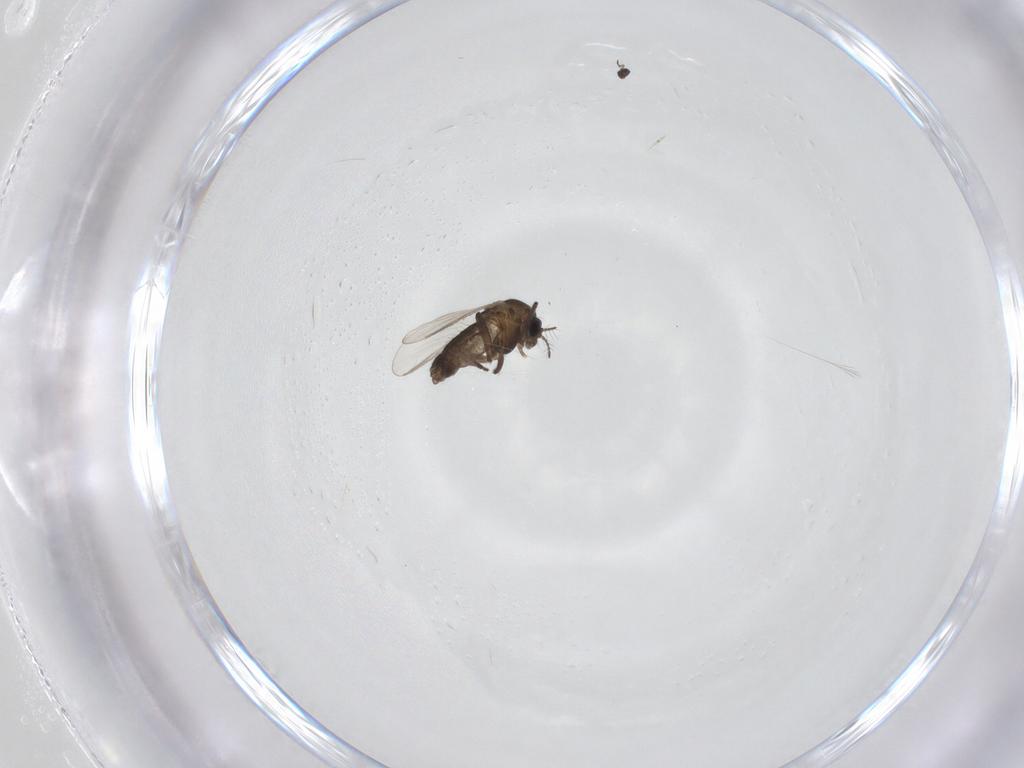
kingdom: Animalia
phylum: Arthropoda
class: Insecta
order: Diptera
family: Chironomidae
